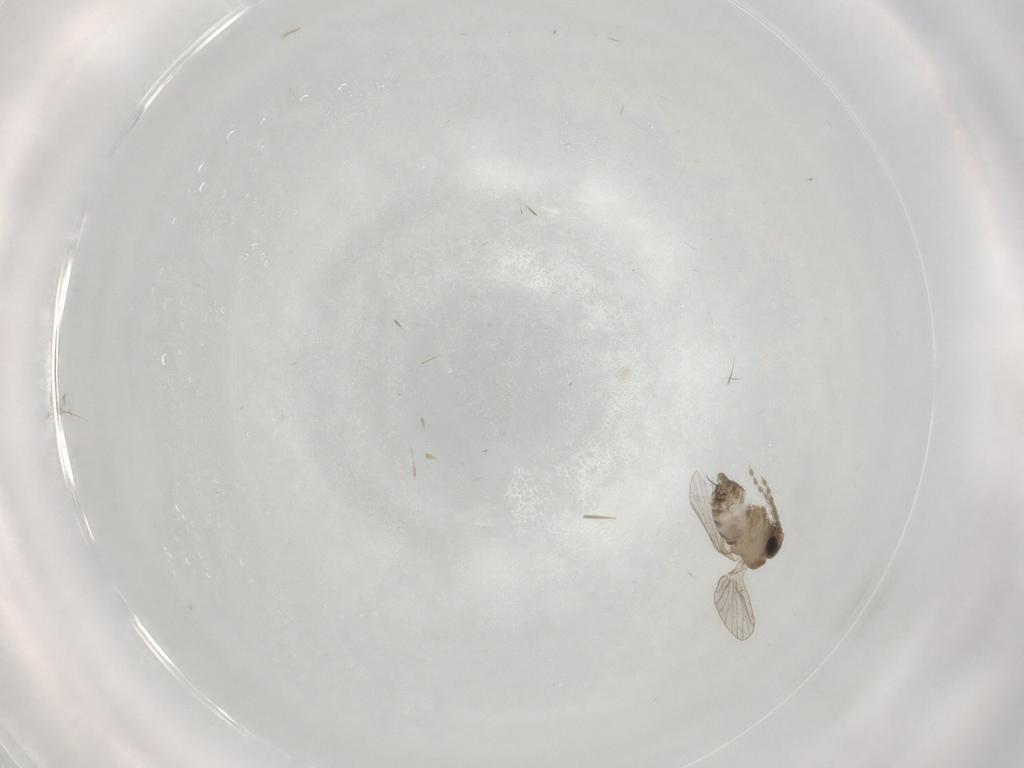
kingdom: Animalia
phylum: Arthropoda
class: Insecta
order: Diptera
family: Psychodidae
